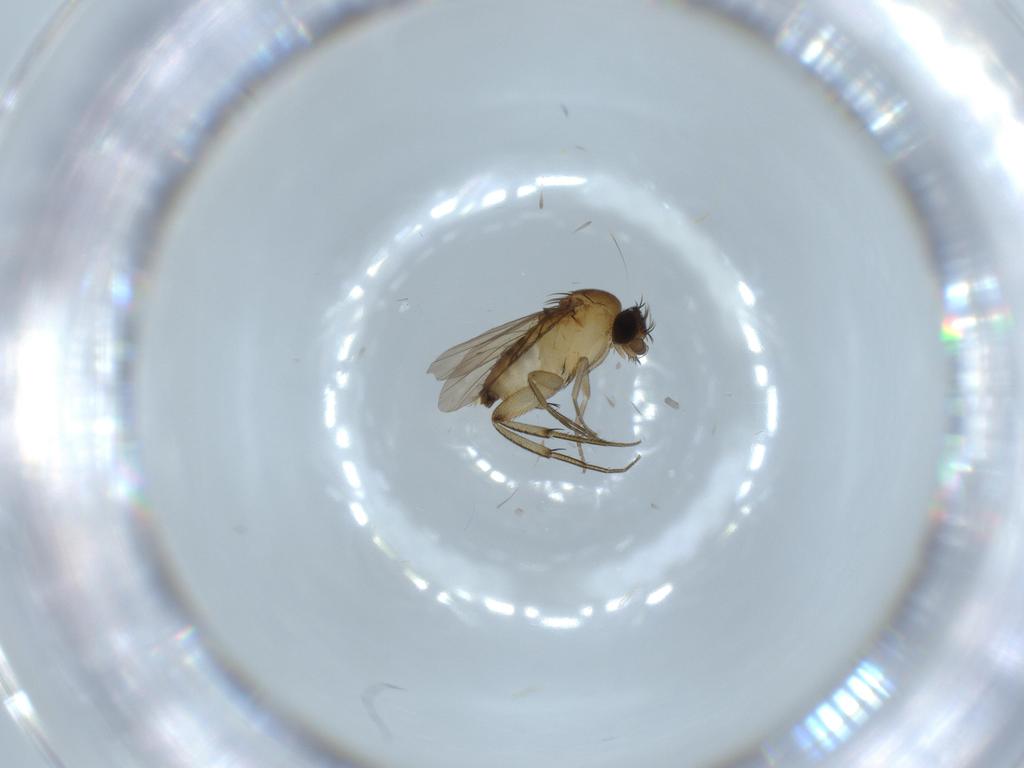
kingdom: Animalia
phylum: Arthropoda
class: Insecta
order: Diptera
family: Phoridae
